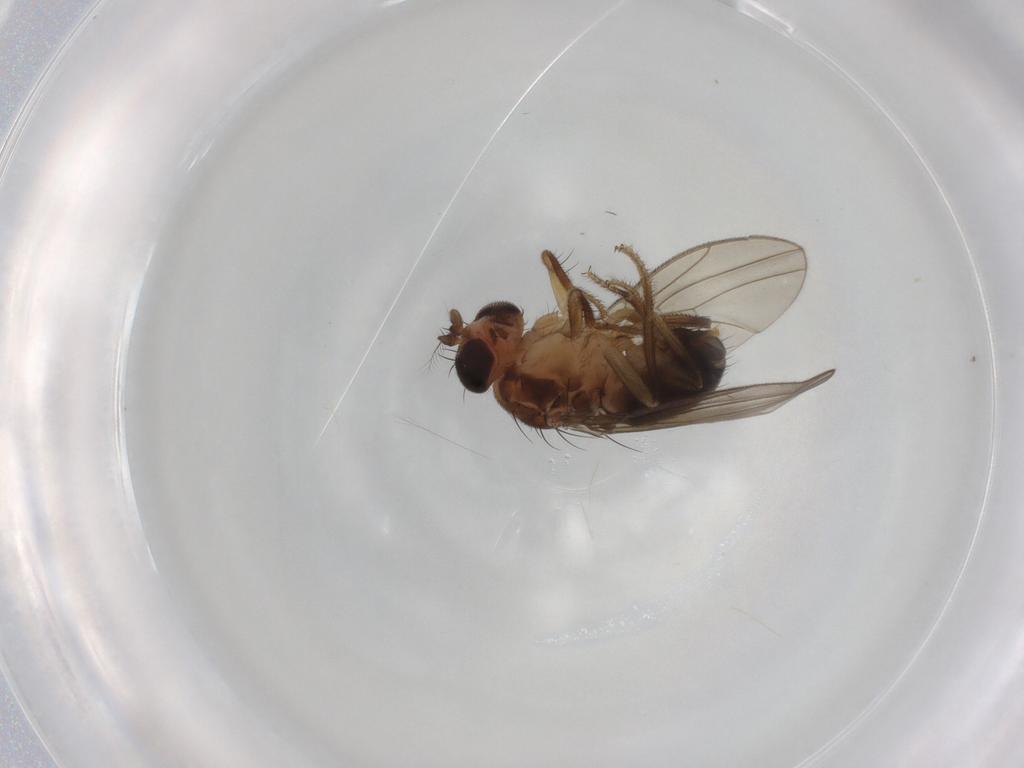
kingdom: Animalia
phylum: Arthropoda
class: Insecta
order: Diptera
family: Drosophilidae
